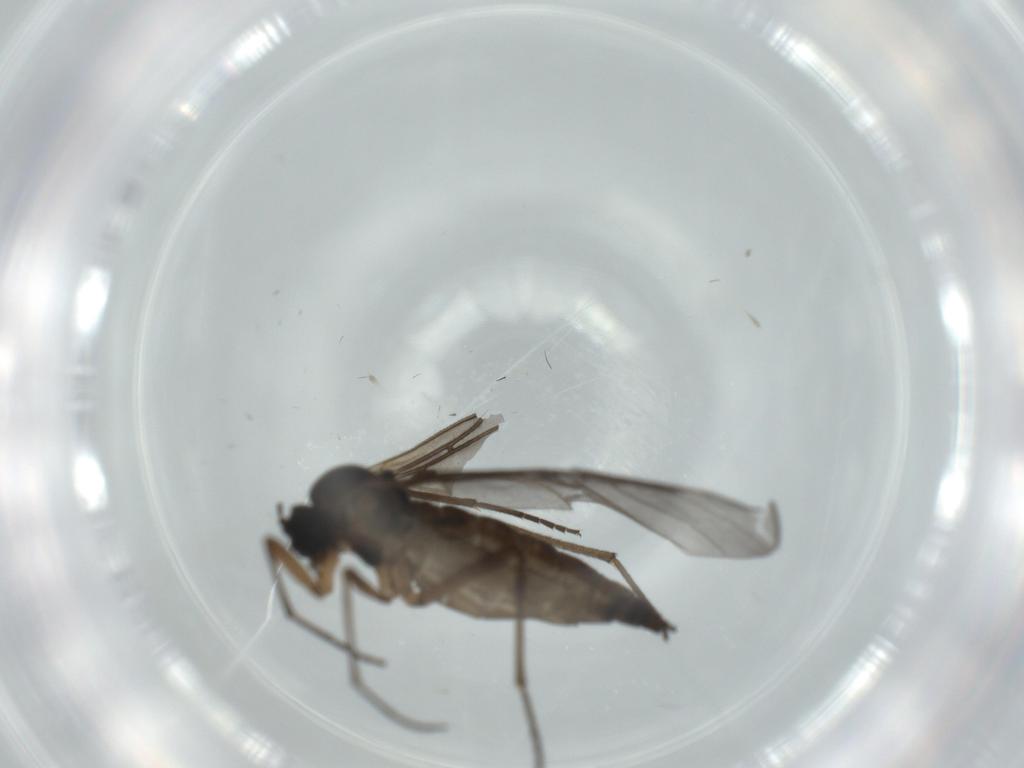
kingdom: Animalia
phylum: Arthropoda
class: Insecta
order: Diptera
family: Sciaridae
